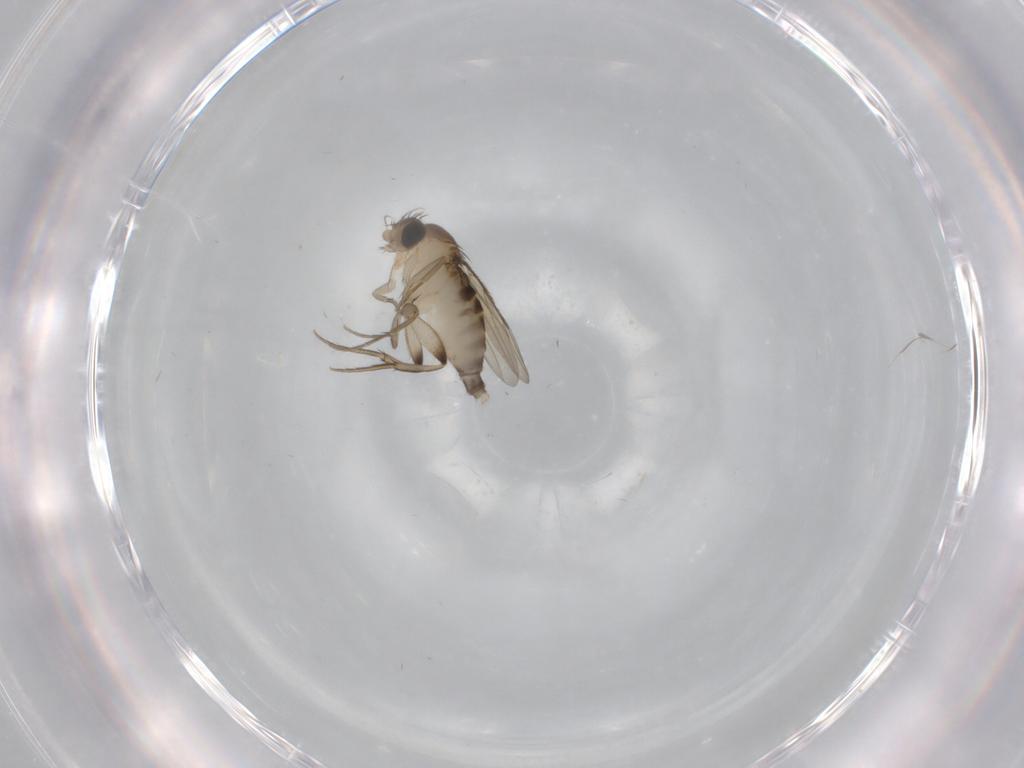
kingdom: Animalia
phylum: Arthropoda
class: Insecta
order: Diptera
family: Phoridae
